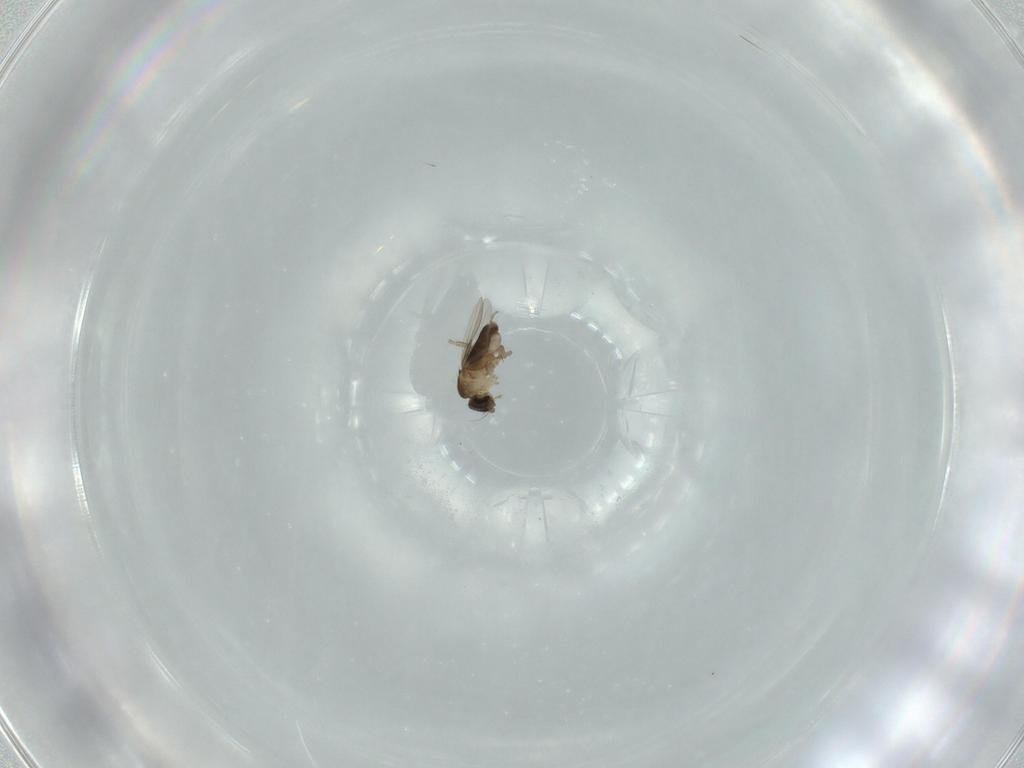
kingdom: Animalia
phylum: Arthropoda
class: Insecta
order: Diptera
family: Phoridae
